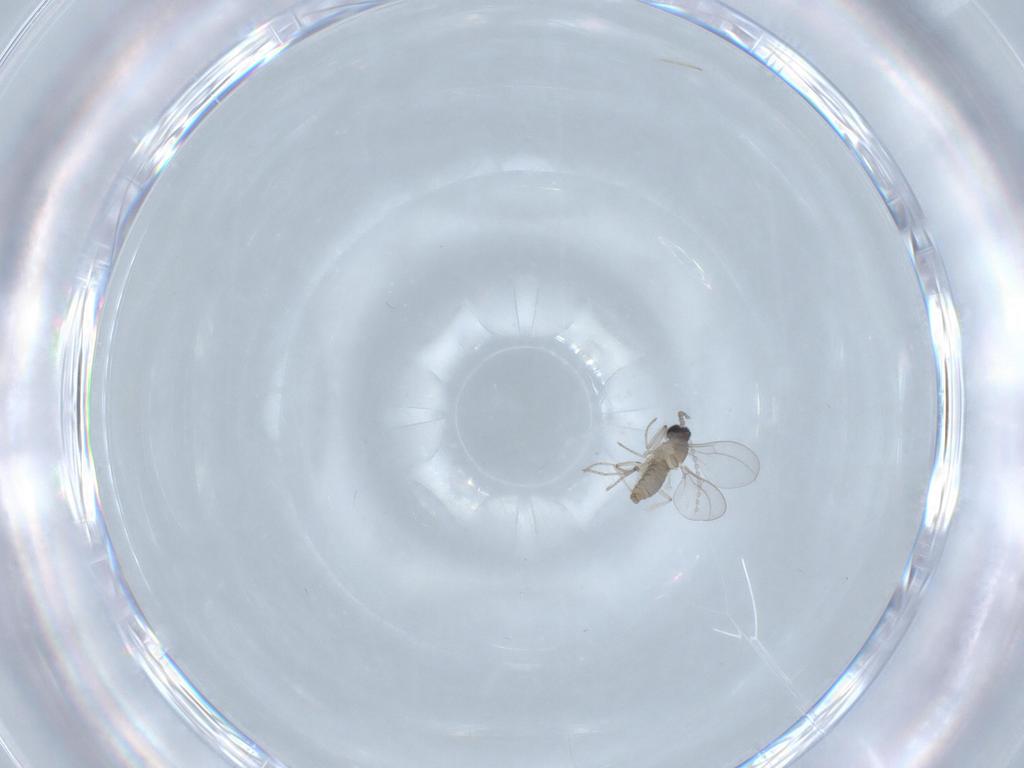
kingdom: Animalia
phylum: Arthropoda
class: Insecta
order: Diptera
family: Cecidomyiidae
